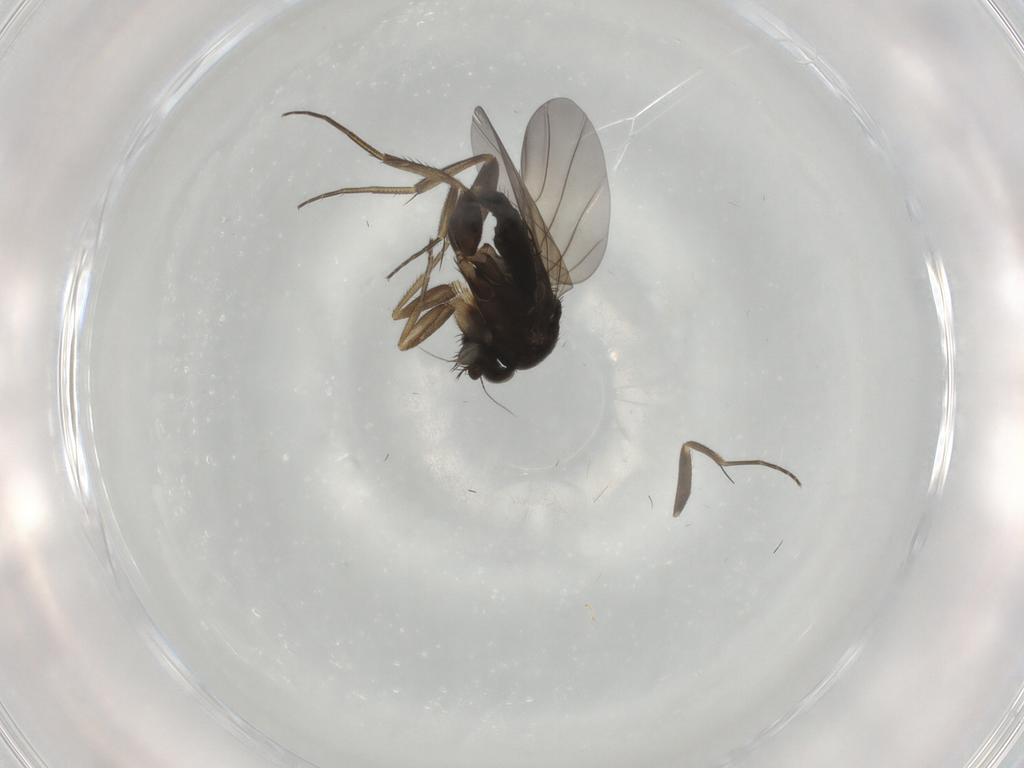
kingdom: Animalia
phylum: Arthropoda
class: Insecta
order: Diptera
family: Phoridae
